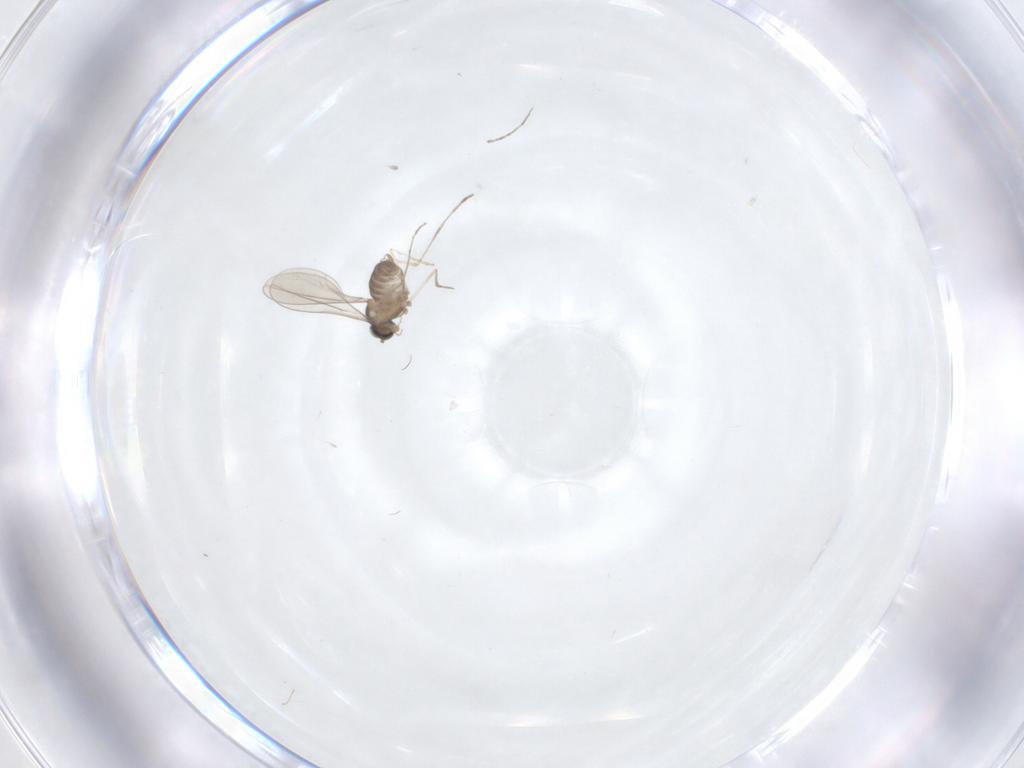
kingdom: Animalia
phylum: Arthropoda
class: Insecta
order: Diptera
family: Cecidomyiidae
